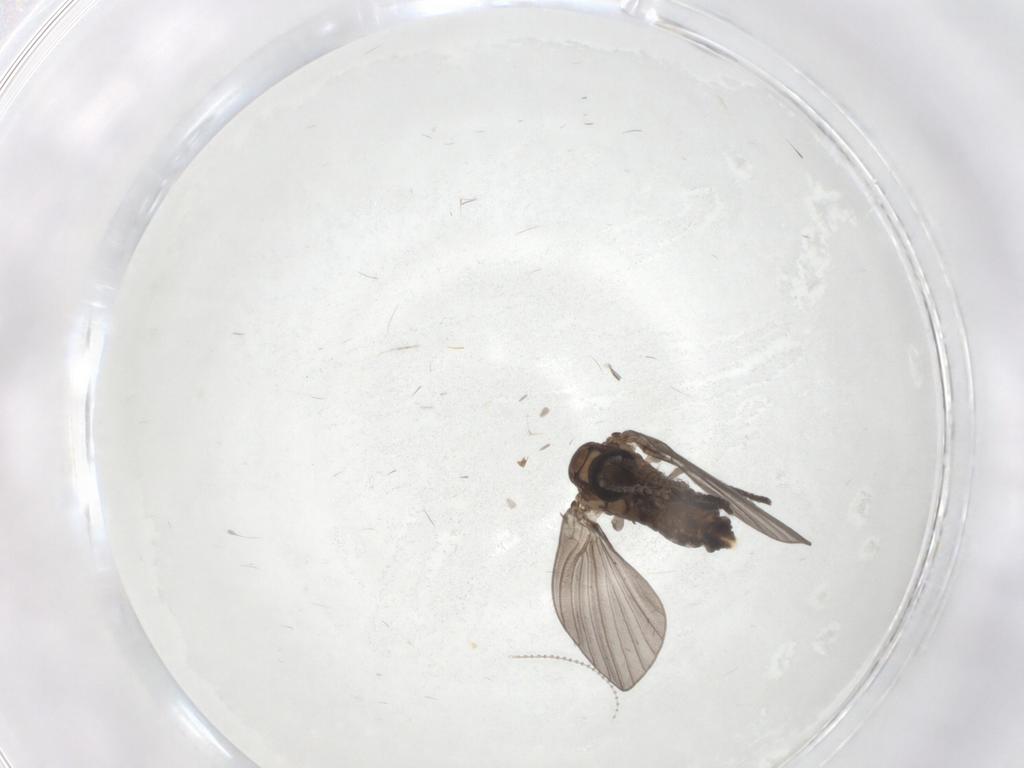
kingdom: Animalia
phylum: Arthropoda
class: Insecta
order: Diptera
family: Psychodidae
